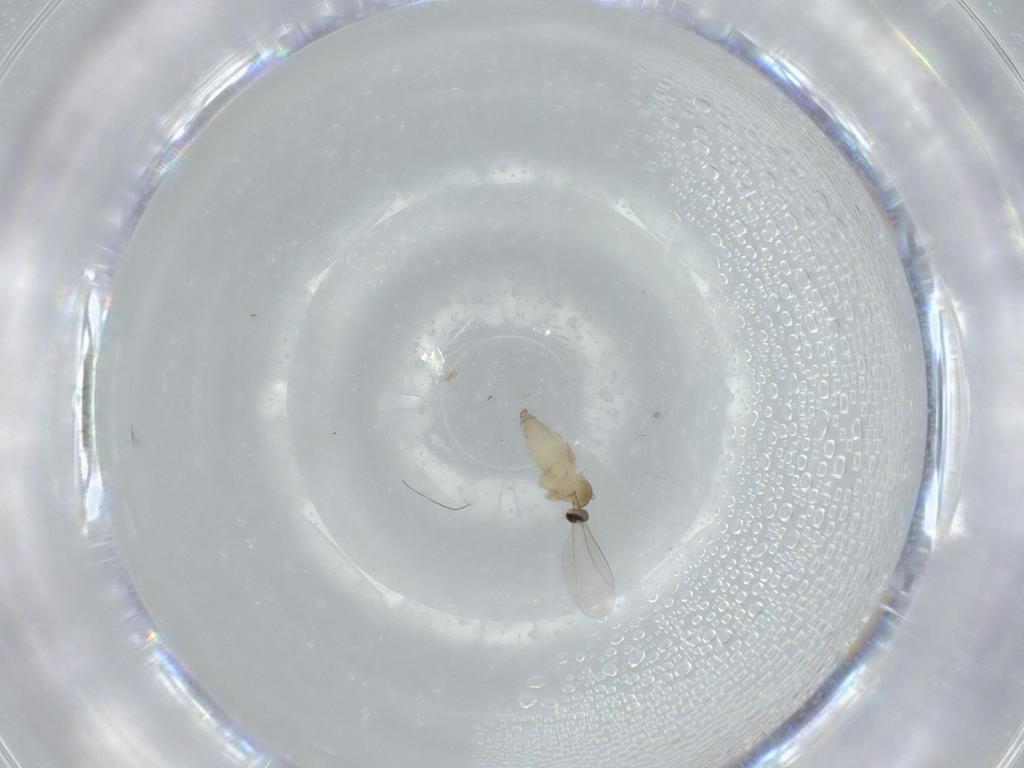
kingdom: Animalia
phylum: Arthropoda
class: Insecta
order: Diptera
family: Cecidomyiidae
